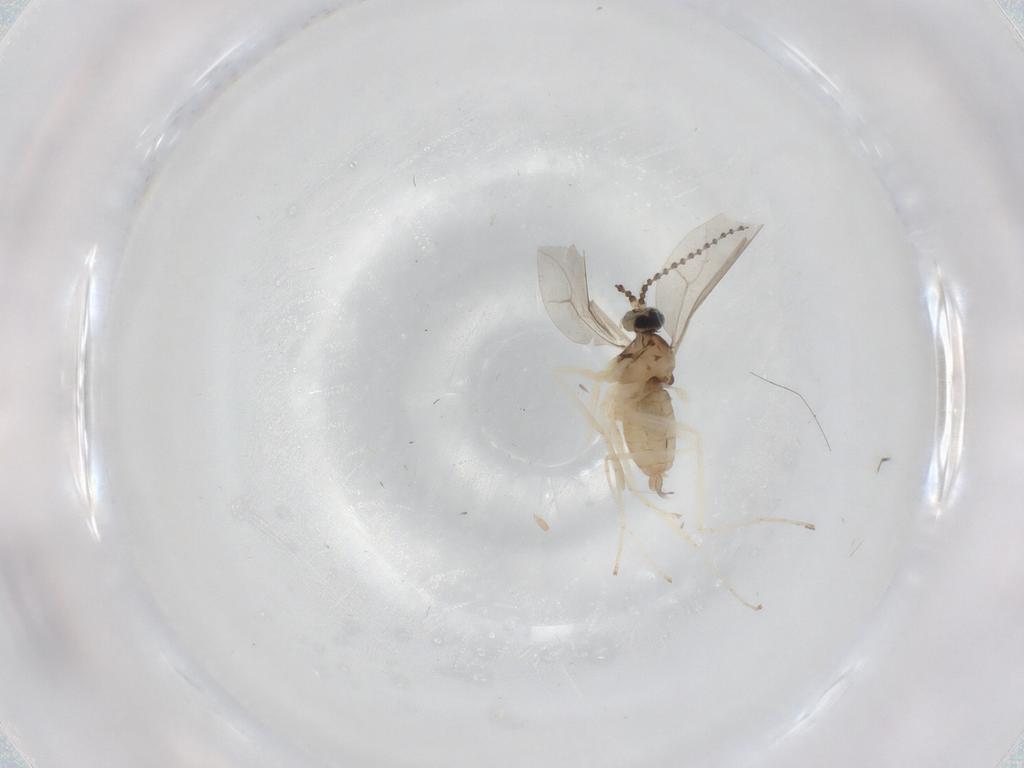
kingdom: Animalia
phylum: Arthropoda
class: Insecta
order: Diptera
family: Phoridae
